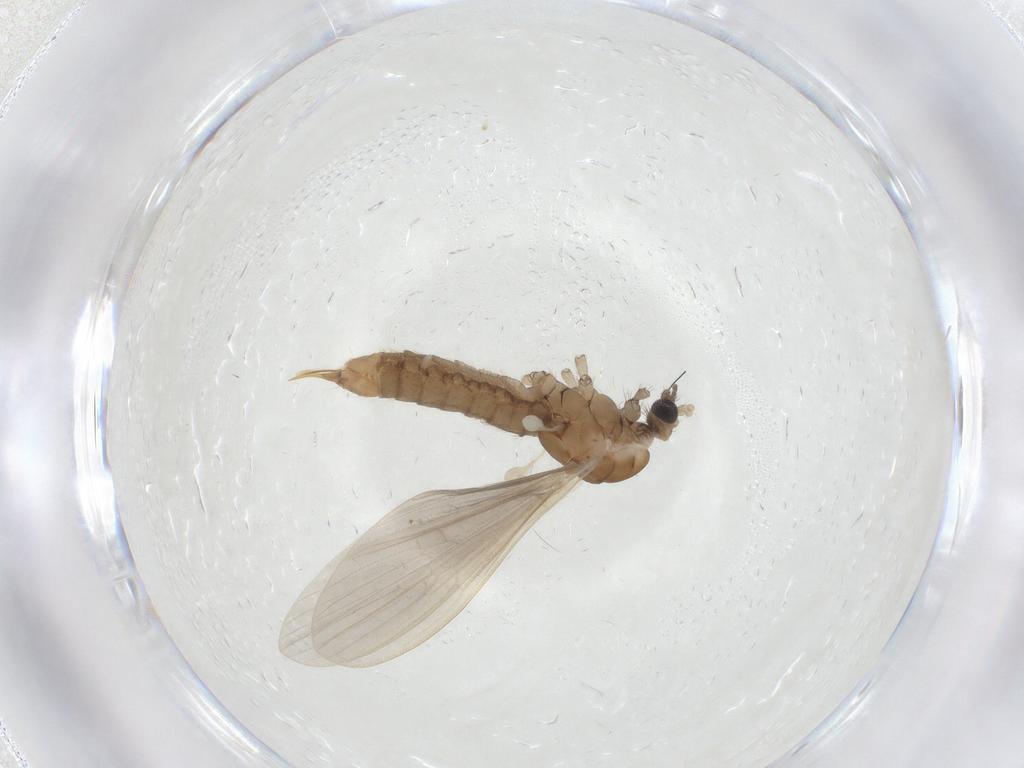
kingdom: Animalia
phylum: Arthropoda
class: Insecta
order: Diptera
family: Limoniidae
